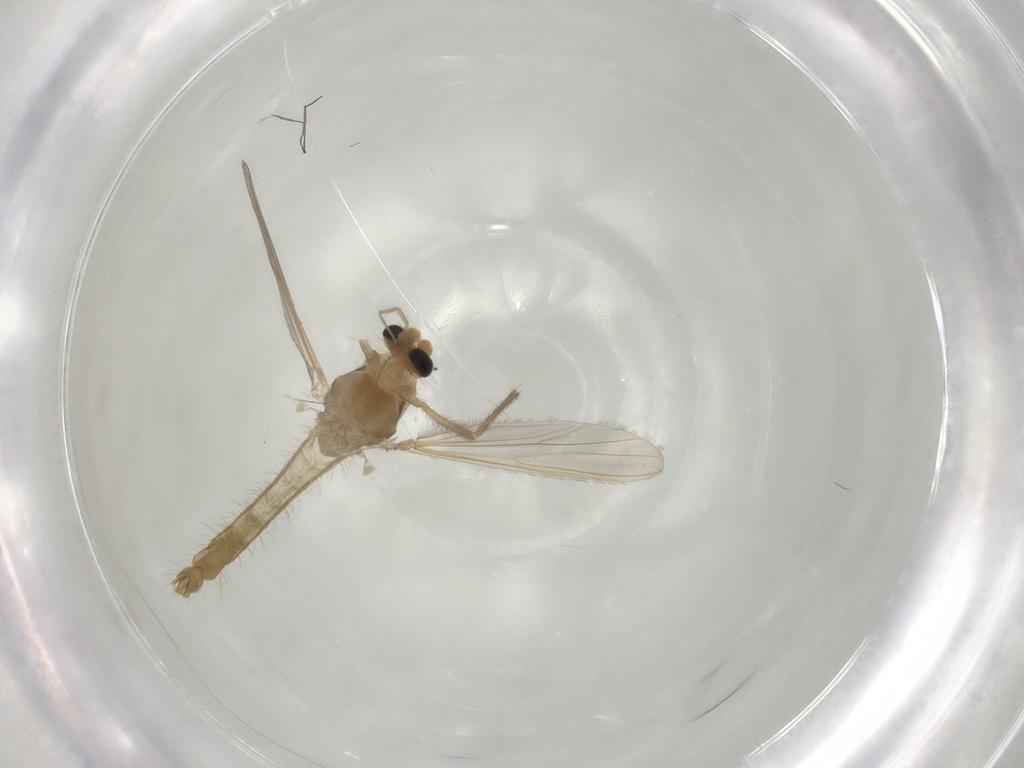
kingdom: Animalia
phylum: Arthropoda
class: Insecta
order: Diptera
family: Chironomidae
